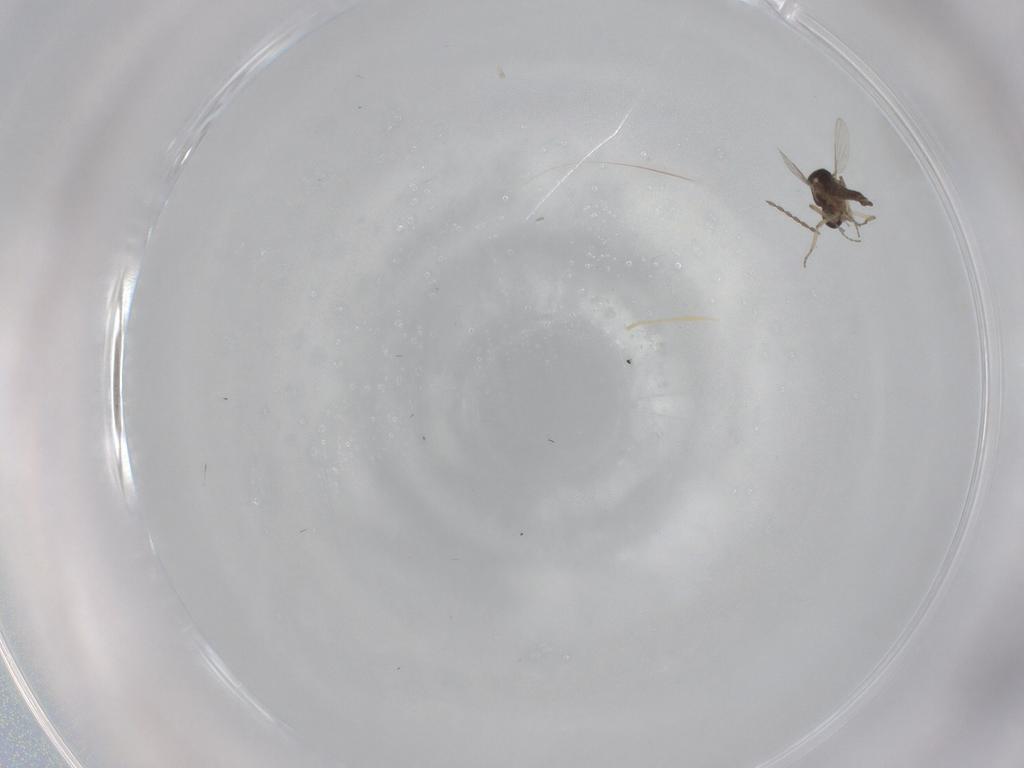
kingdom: Animalia
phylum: Arthropoda
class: Insecta
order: Diptera
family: Ceratopogonidae
